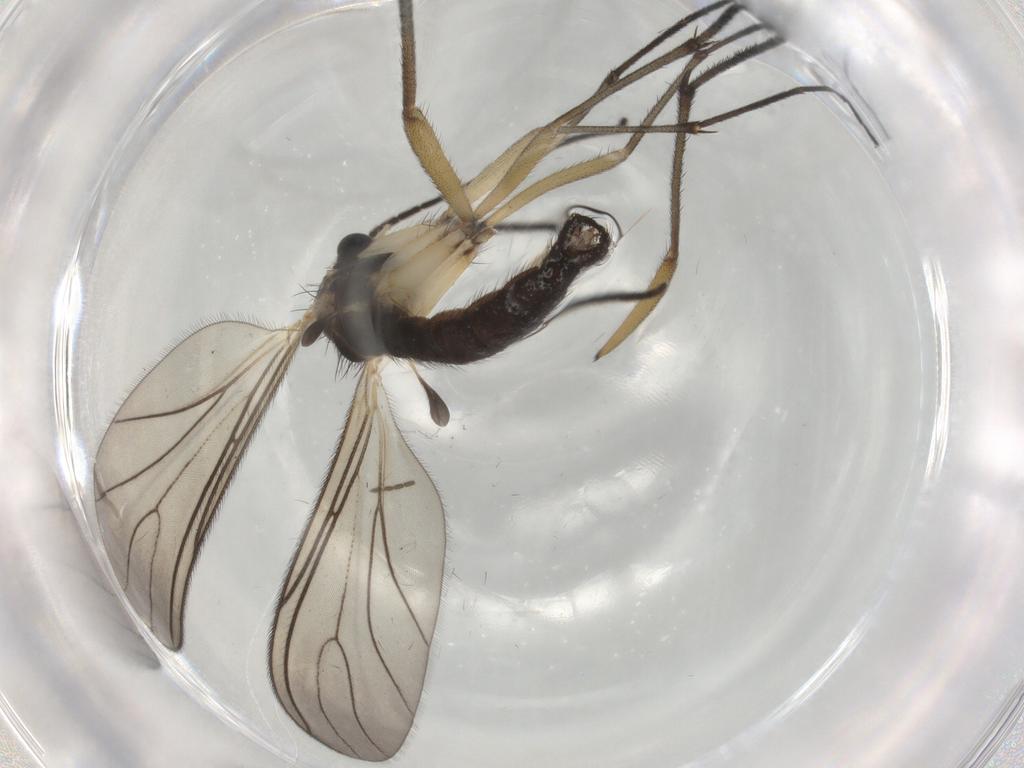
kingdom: Animalia
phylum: Arthropoda
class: Insecta
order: Diptera
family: Sciaridae
